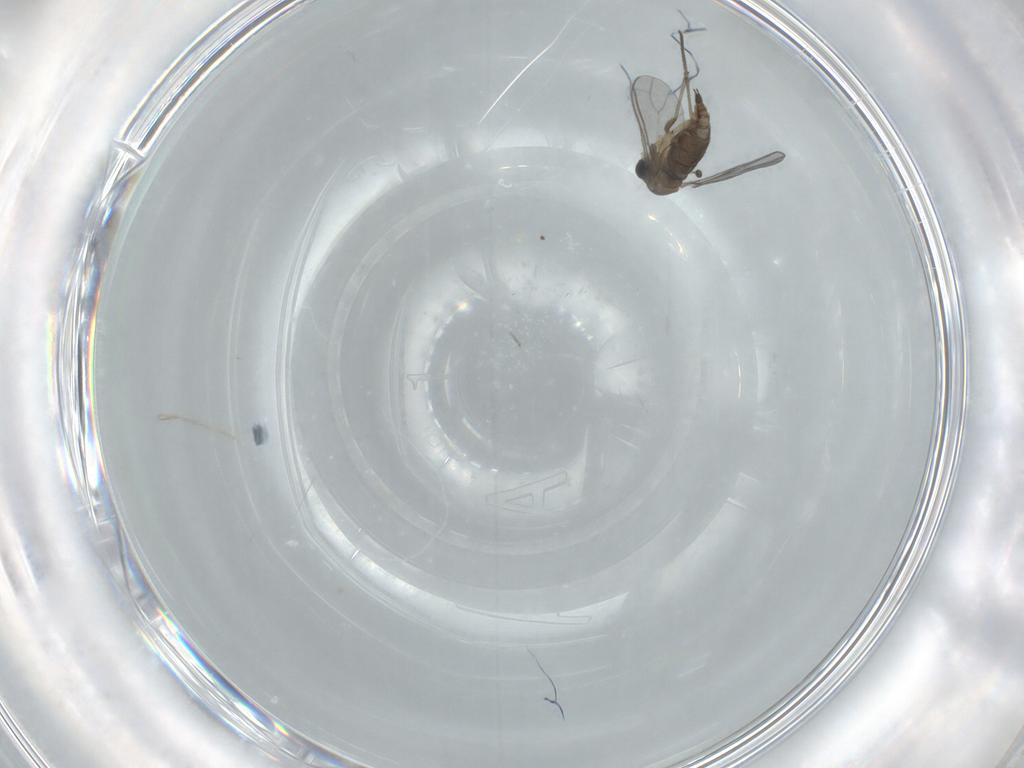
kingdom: Animalia
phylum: Arthropoda
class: Insecta
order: Diptera
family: Sciaridae
